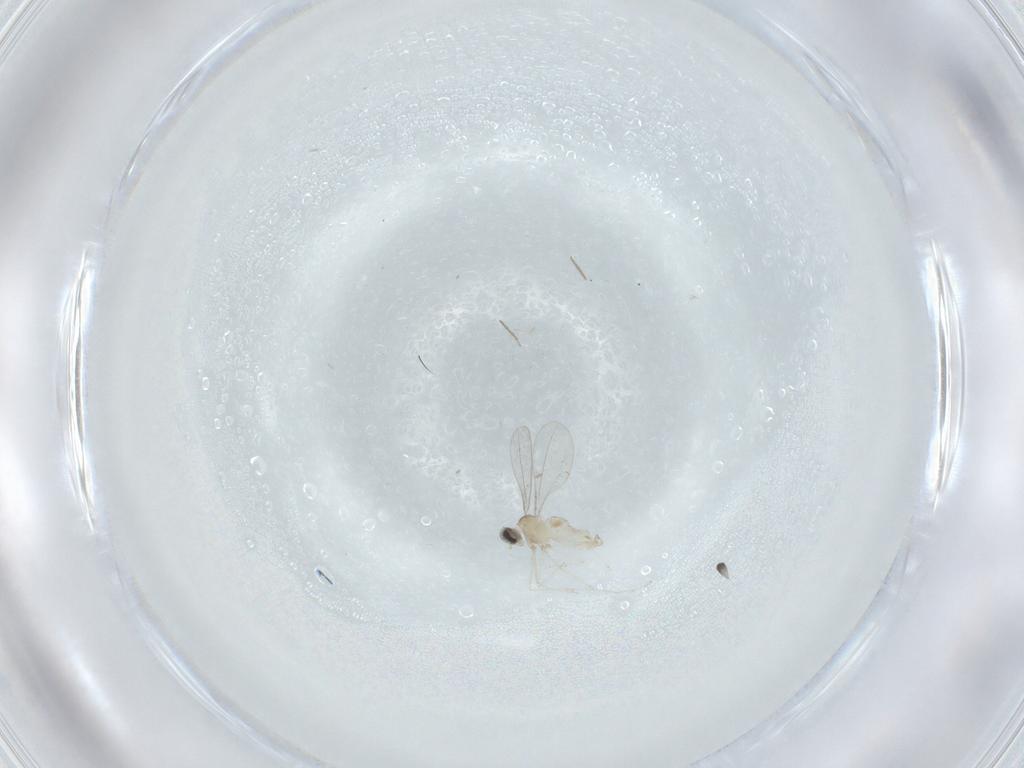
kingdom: Animalia
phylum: Arthropoda
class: Insecta
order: Diptera
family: Cecidomyiidae
